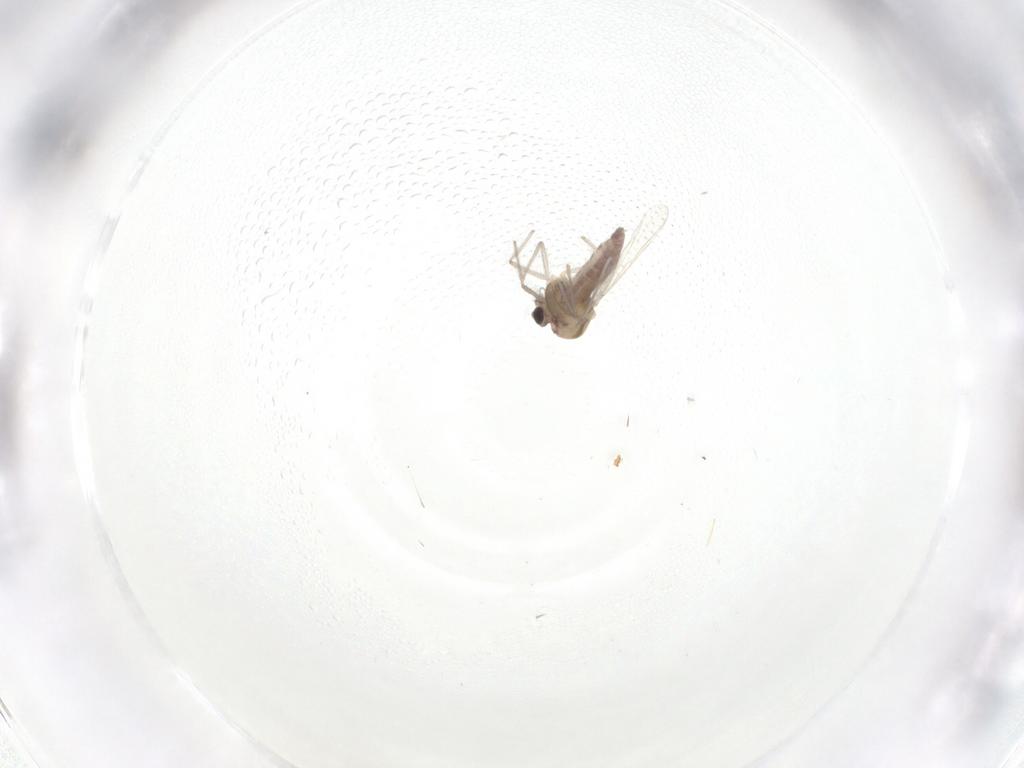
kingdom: Animalia
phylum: Arthropoda
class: Insecta
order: Diptera
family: Chironomidae
